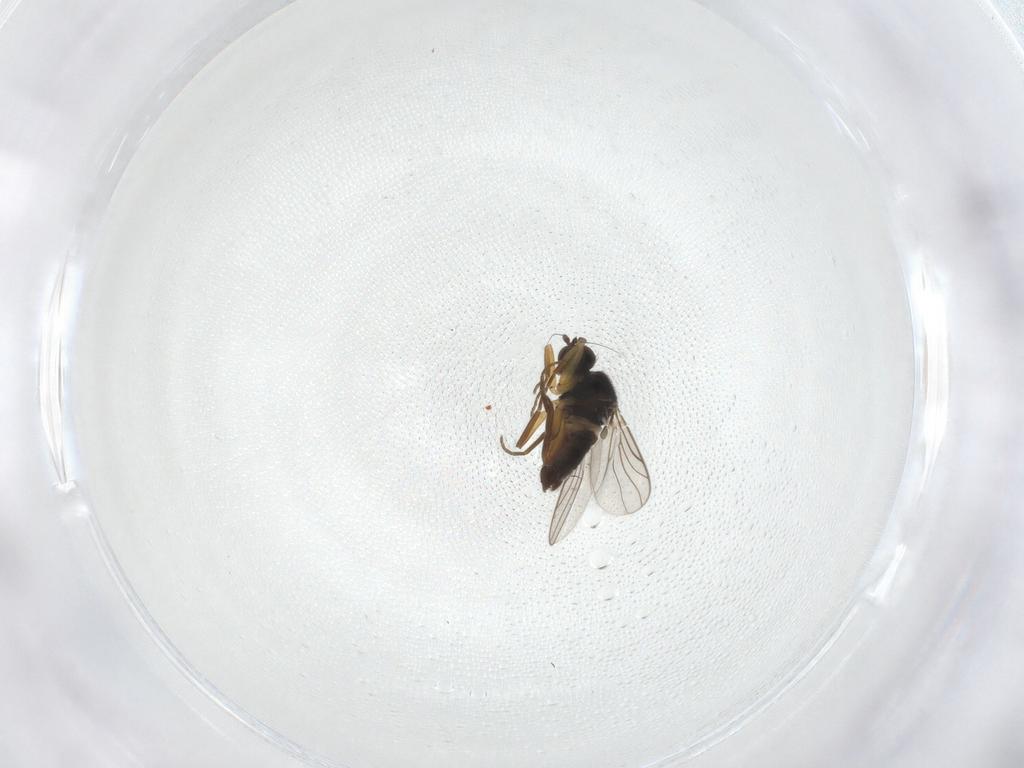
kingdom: Animalia
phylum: Arthropoda
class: Insecta
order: Diptera
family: Hybotidae
